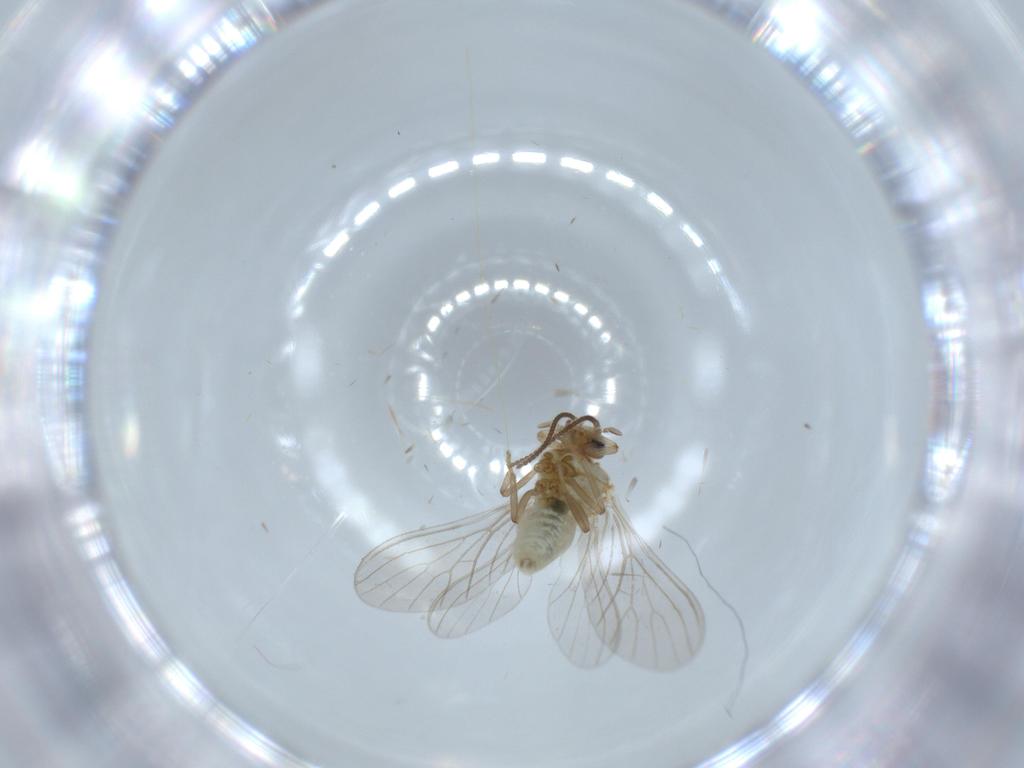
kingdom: Animalia
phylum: Arthropoda
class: Insecta
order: Neuroptera
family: Coniopterygidae
